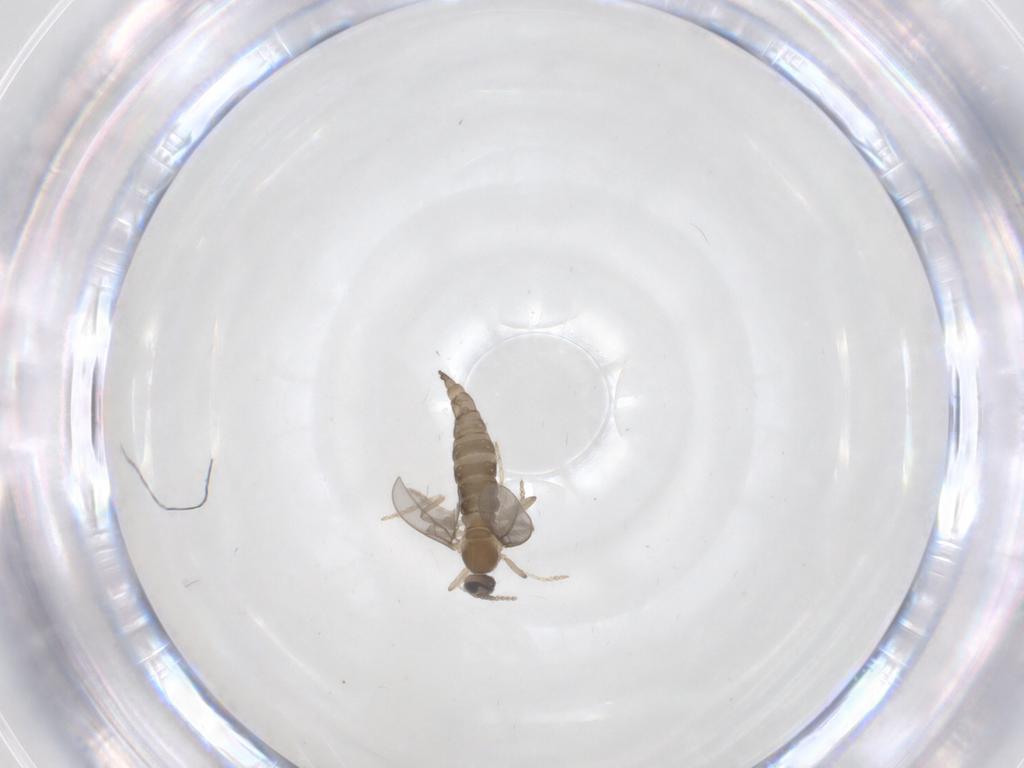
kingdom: Animalia
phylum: Arthropoda
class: Insecta
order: Diptera
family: Cecidomyiidae
